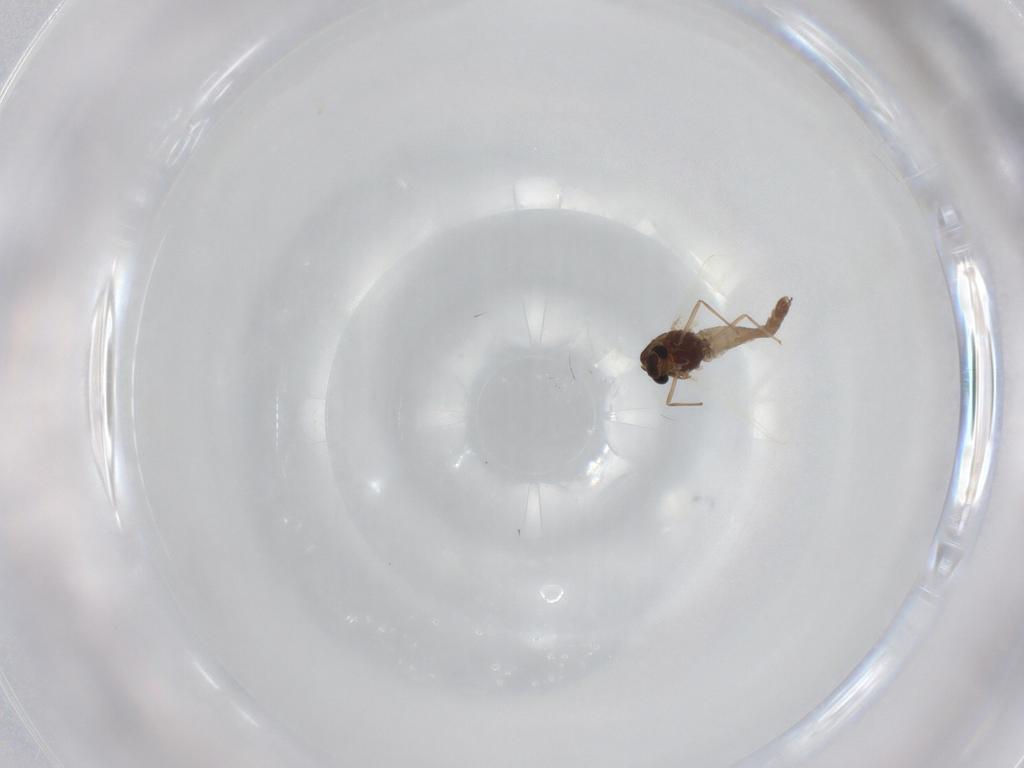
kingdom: Animalia
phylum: Arthropoda
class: Insecta
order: Diptera
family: Chironomidae
